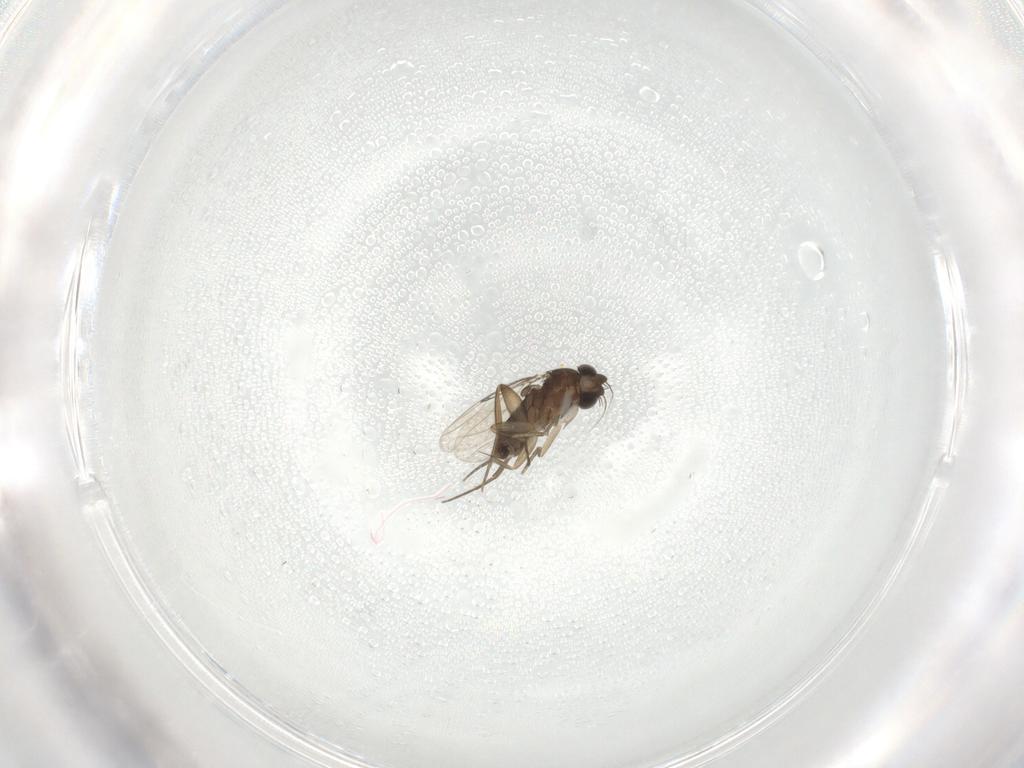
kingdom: Animalia
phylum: Arthropoda
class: Insecta
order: Diptera
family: Phoridae
